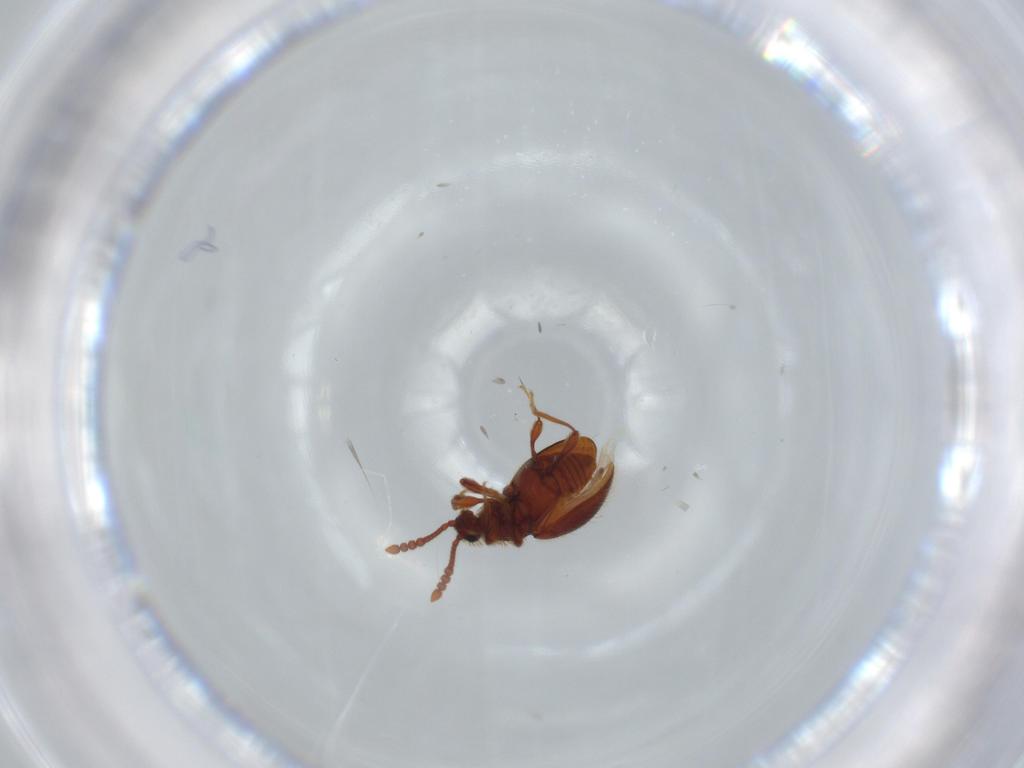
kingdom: Animalia
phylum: Arthropoda
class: Insecta
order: Coleoptera
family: Staphylinidae
